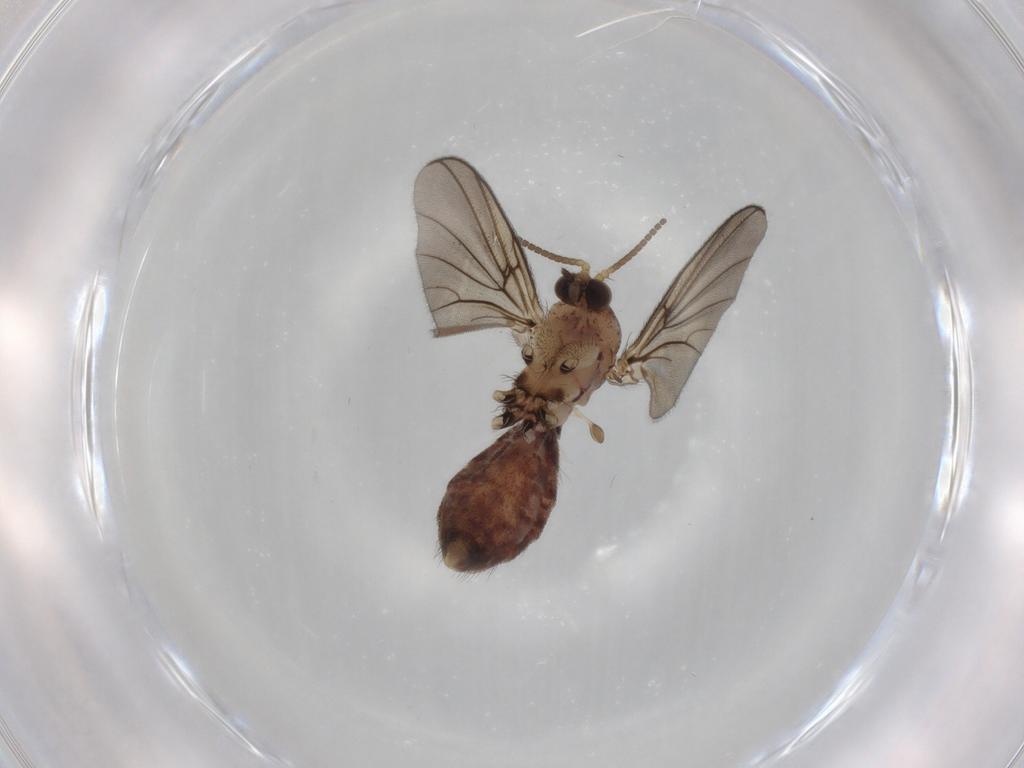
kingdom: Animalia
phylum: Arthropoda
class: Insecta
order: Diptera
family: Mycetophilidae
